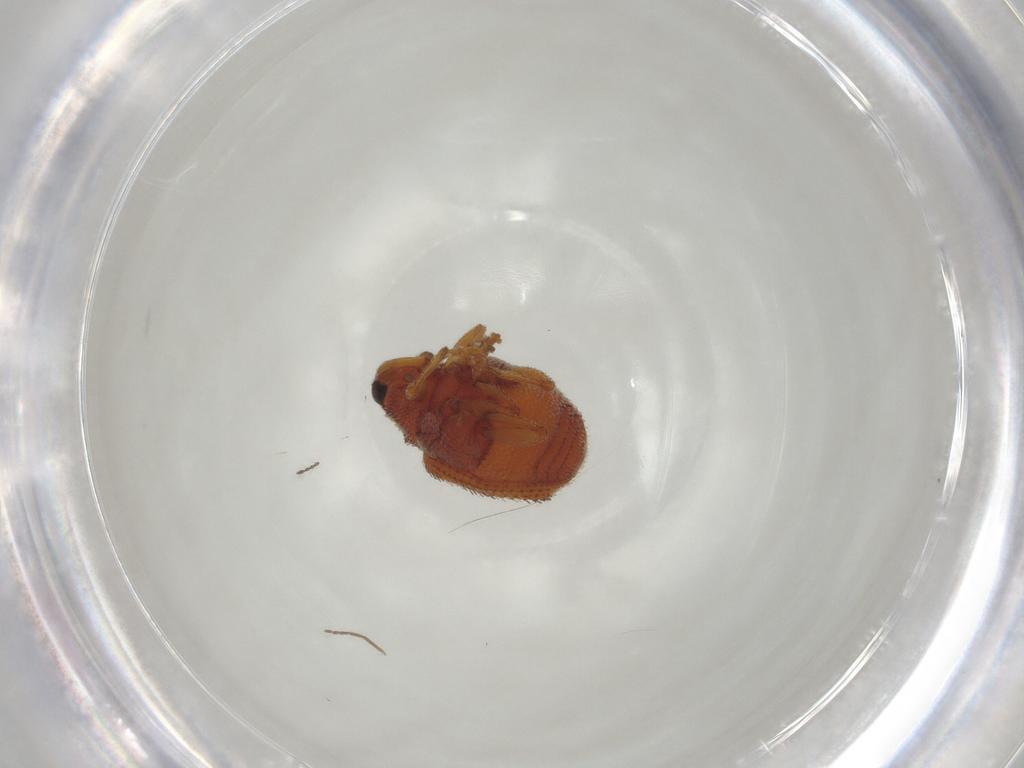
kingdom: Animalia
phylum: Arthropoda
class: Insecta
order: Coleoptera
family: Curculionidae
